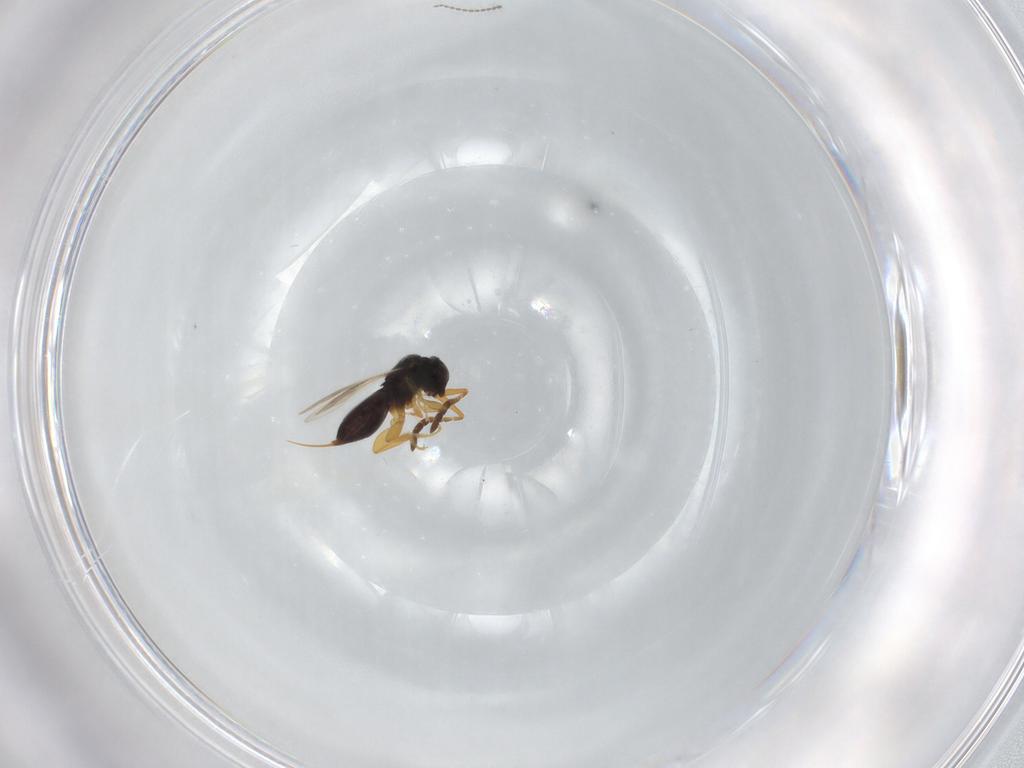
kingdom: Animalia
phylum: Arthropoda
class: Insecta
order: Hymenoptera
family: Ceraphronidae
